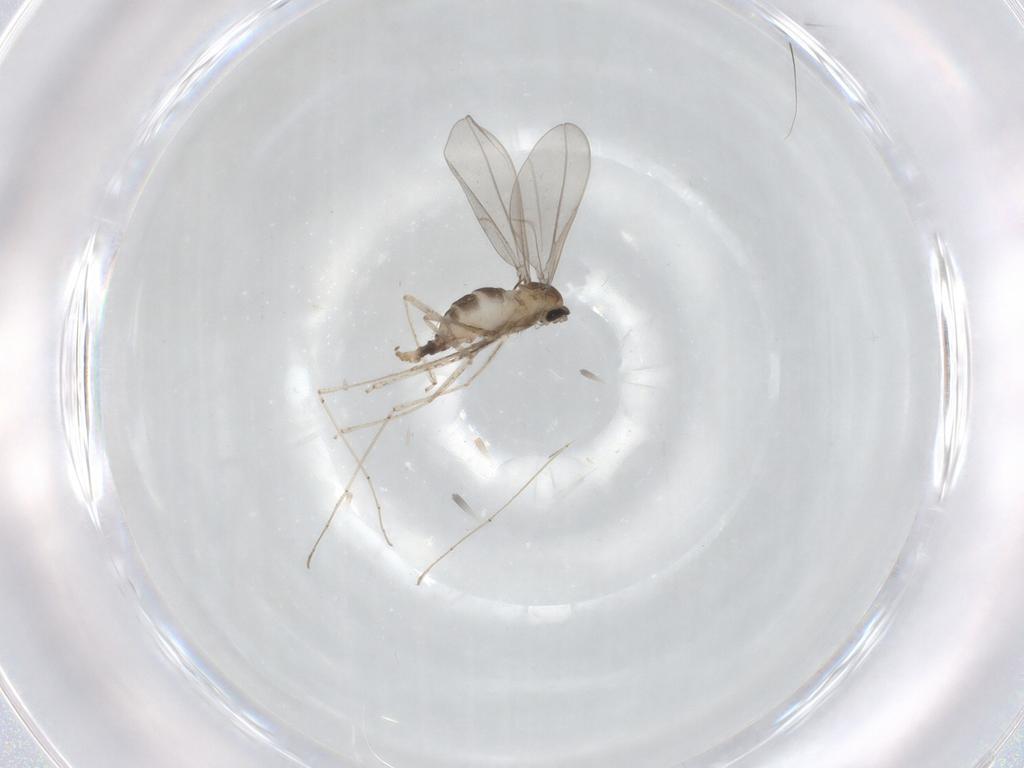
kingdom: Animalia
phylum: Arthropoda
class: Insecta
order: Diptera
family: Cecidomyiidae
